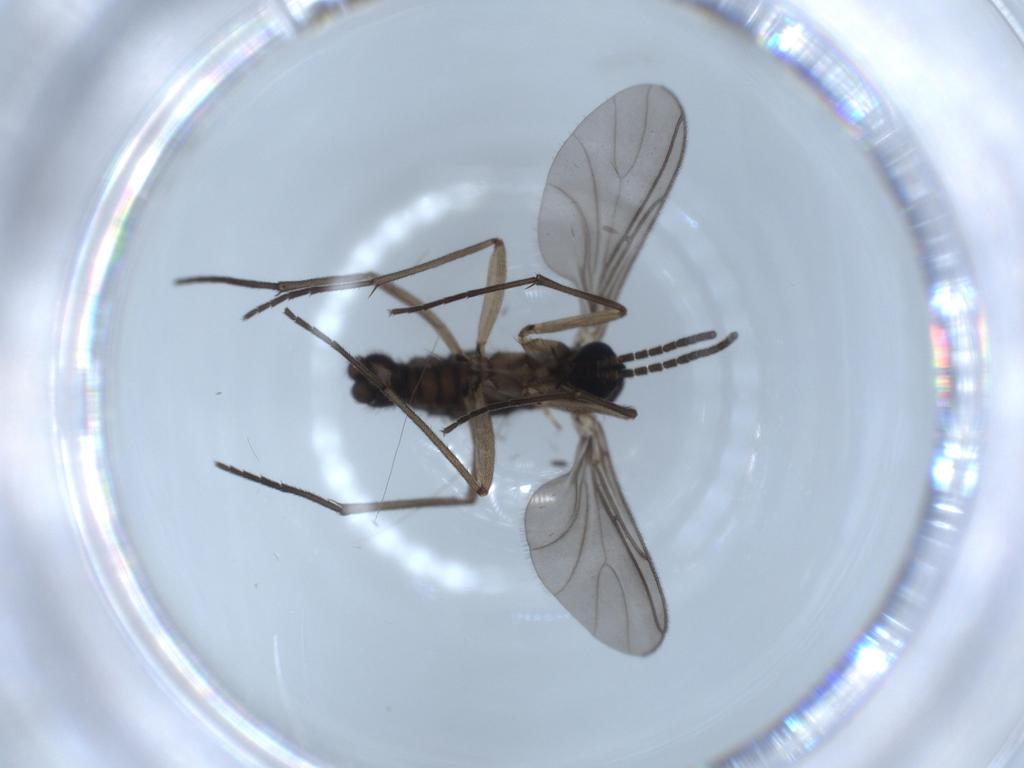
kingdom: Animalia
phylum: Arthropoda
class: Insecta
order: Diptera
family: Sciaridae
